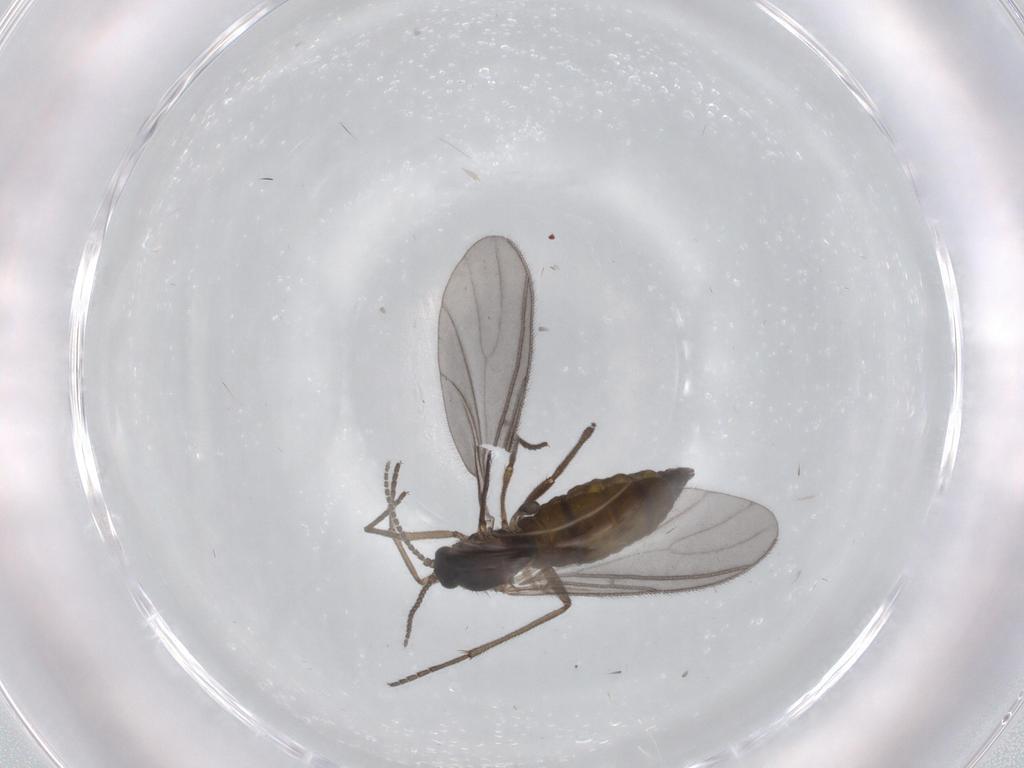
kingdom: Animalia
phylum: Arthropoda
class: Insecta
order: Diptera
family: Sciaridae
